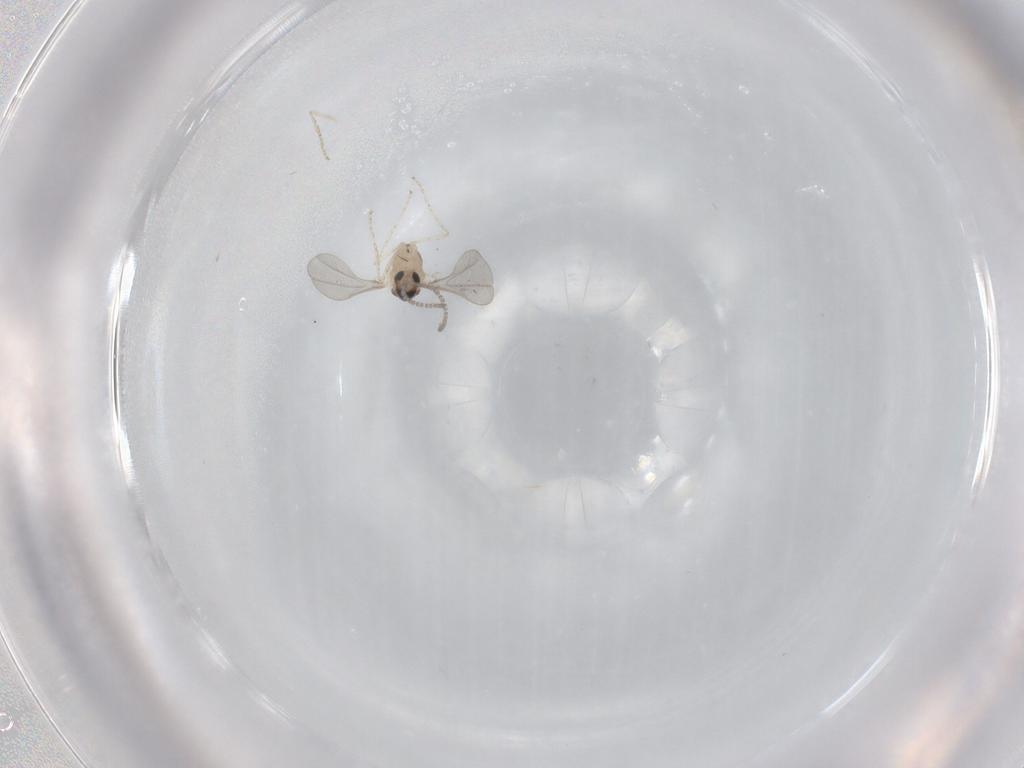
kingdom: Animalia
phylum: Arthropoda
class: Insecta
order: Diptera
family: Cecidomyiidae
